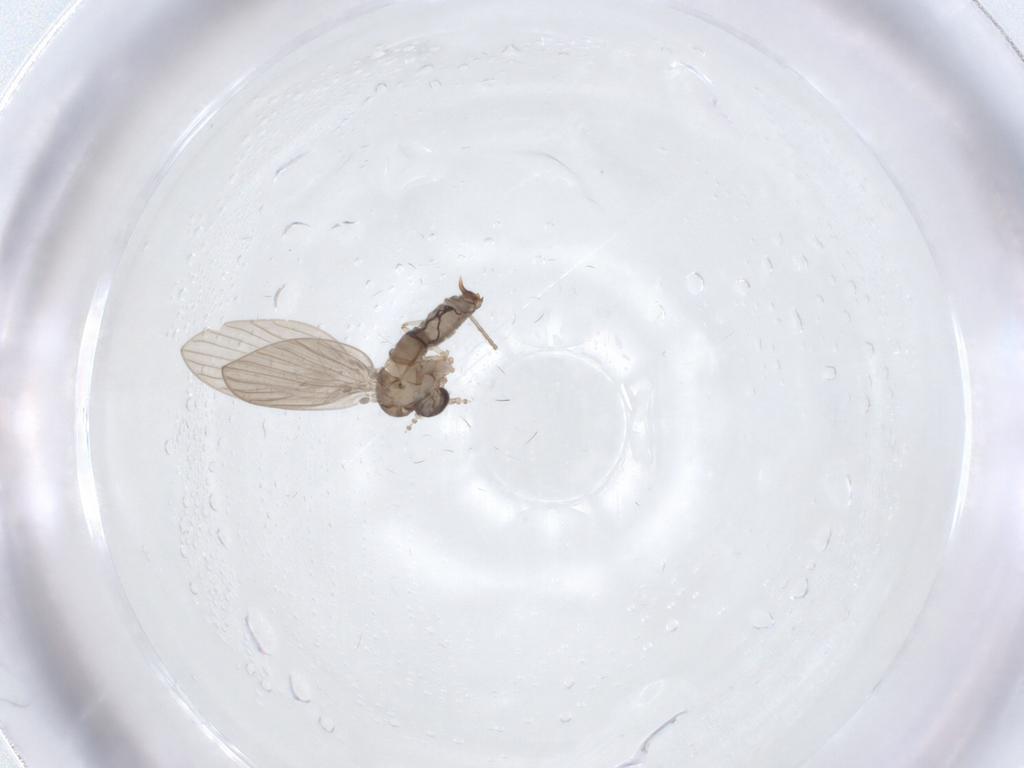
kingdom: Animalia
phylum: Arthropoda
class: Insecta
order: Diptera
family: Psychodidae
